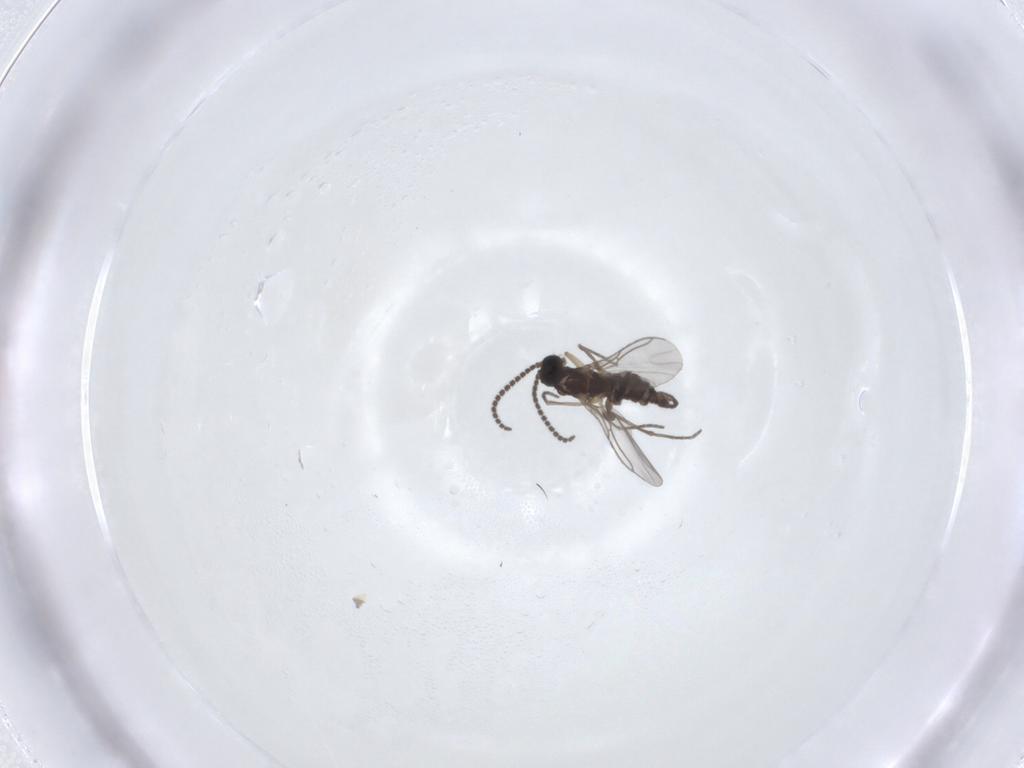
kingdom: Animalia
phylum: Arthropoda
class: Insecta
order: Diptera
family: Sciaridae
